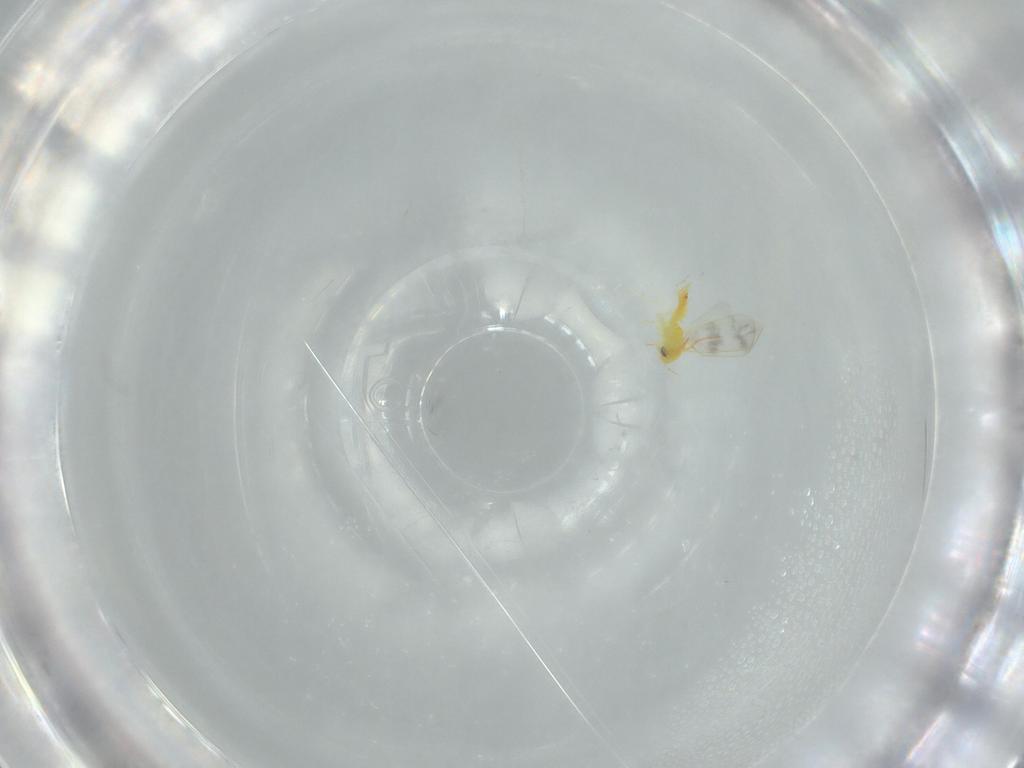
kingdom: Animalia
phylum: Arthropoda
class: Insecta
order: Hemiptera
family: Aleyrodidae
